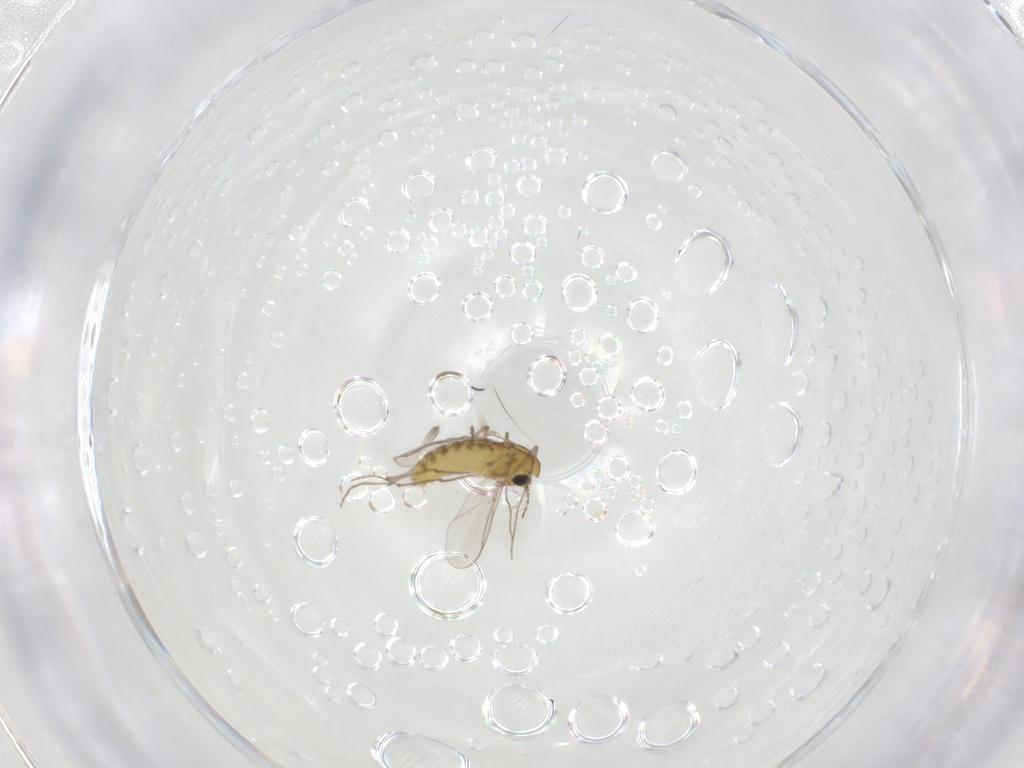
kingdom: Animalia
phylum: Arthropoda
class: Insecta
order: Diptera
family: Chironomidae
